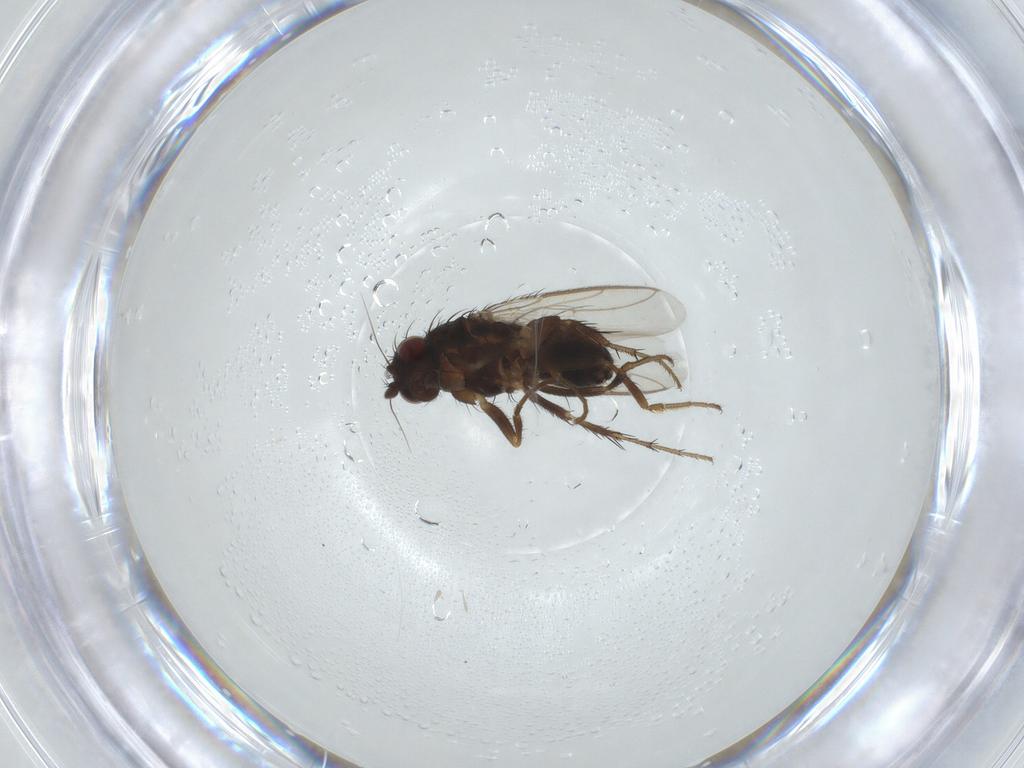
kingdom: Animalia
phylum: Arthropoda
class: Insecta
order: Diptera
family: Sphaeroceridae
